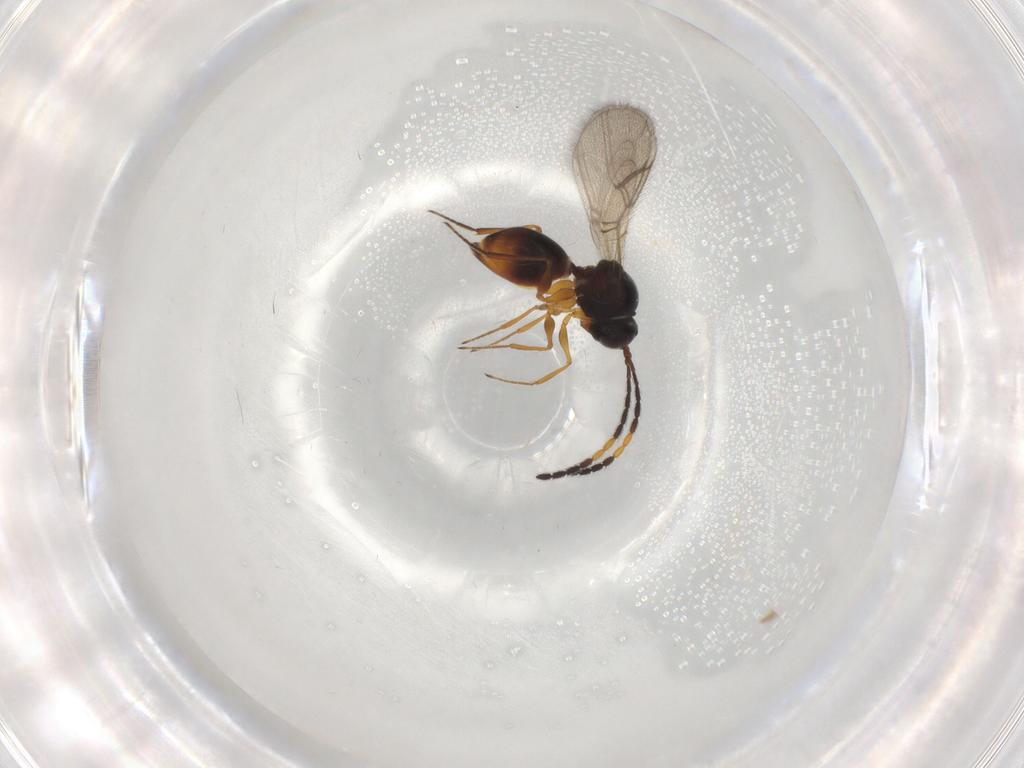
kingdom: Animalia
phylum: Arthropoda
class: Insecta
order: Hymenoptera
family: Figitidae
